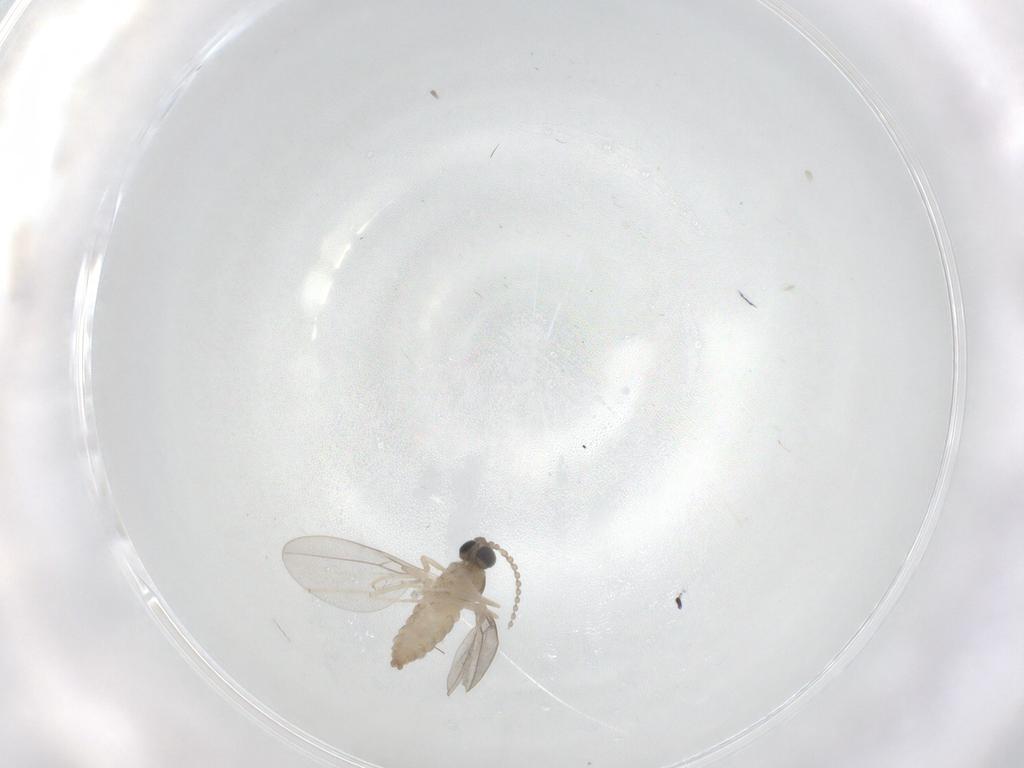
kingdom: Animalia
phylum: Arthropoda
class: Insecta
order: Diptera
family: Cecidomyiidae
